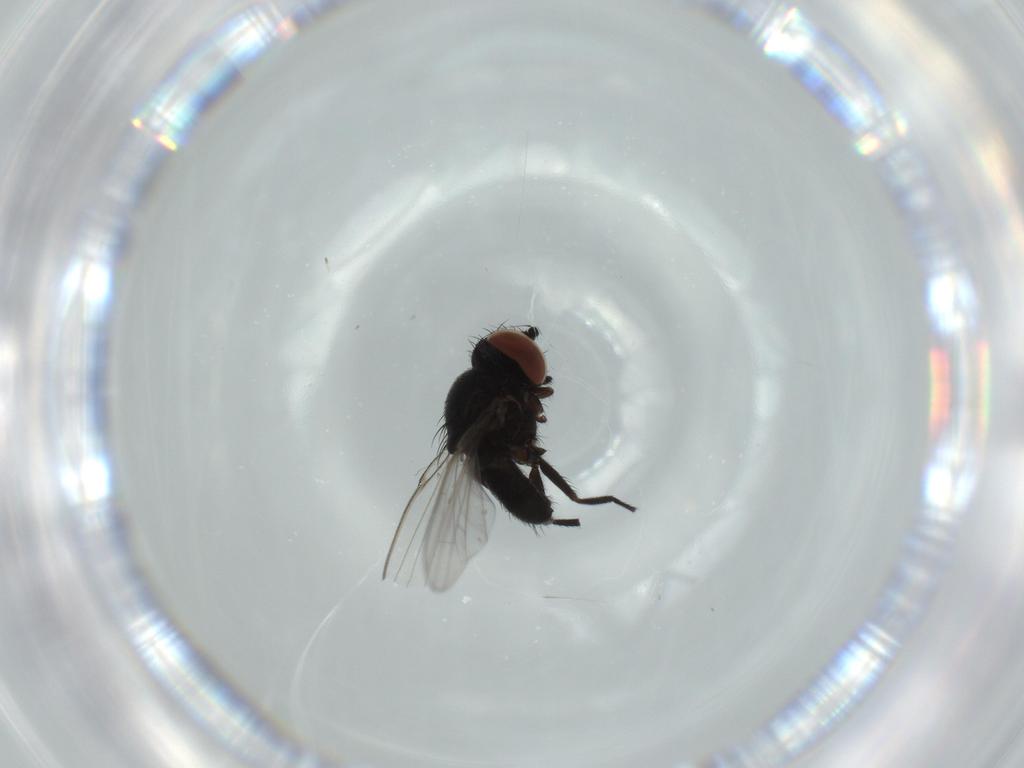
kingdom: Animalia
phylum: Arthropoda
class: Insecta
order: Diptera
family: Milichiidae
